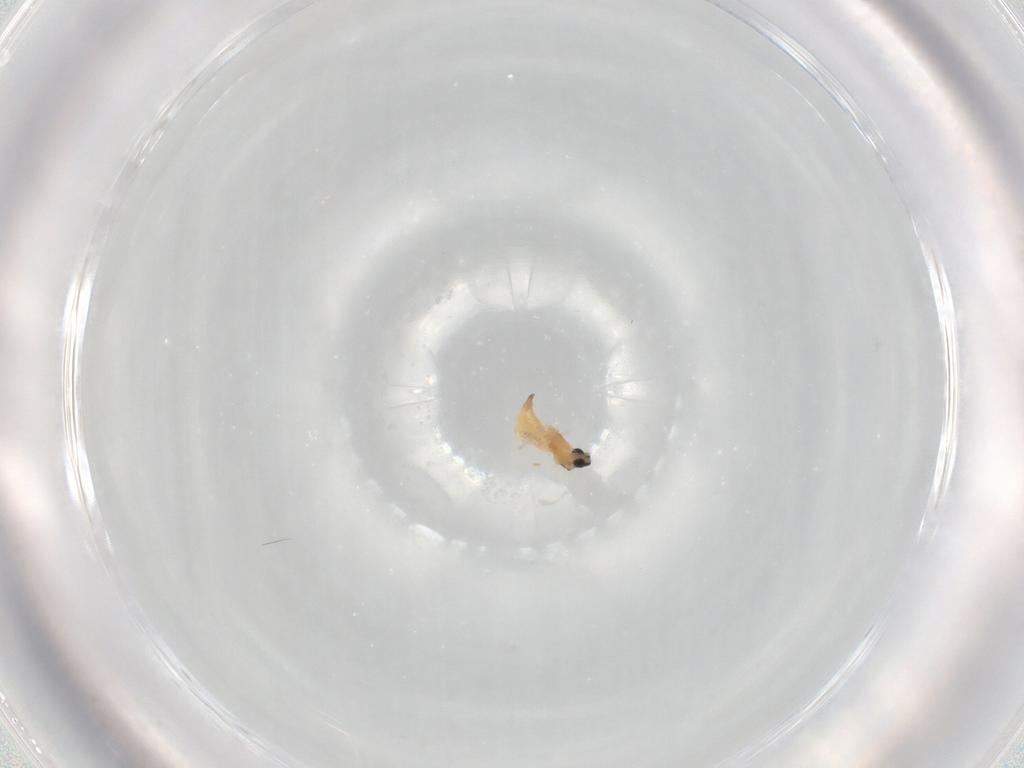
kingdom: Animalia
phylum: Arthropoda
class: Insecta
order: Diptera
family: Cecidomyiidae
